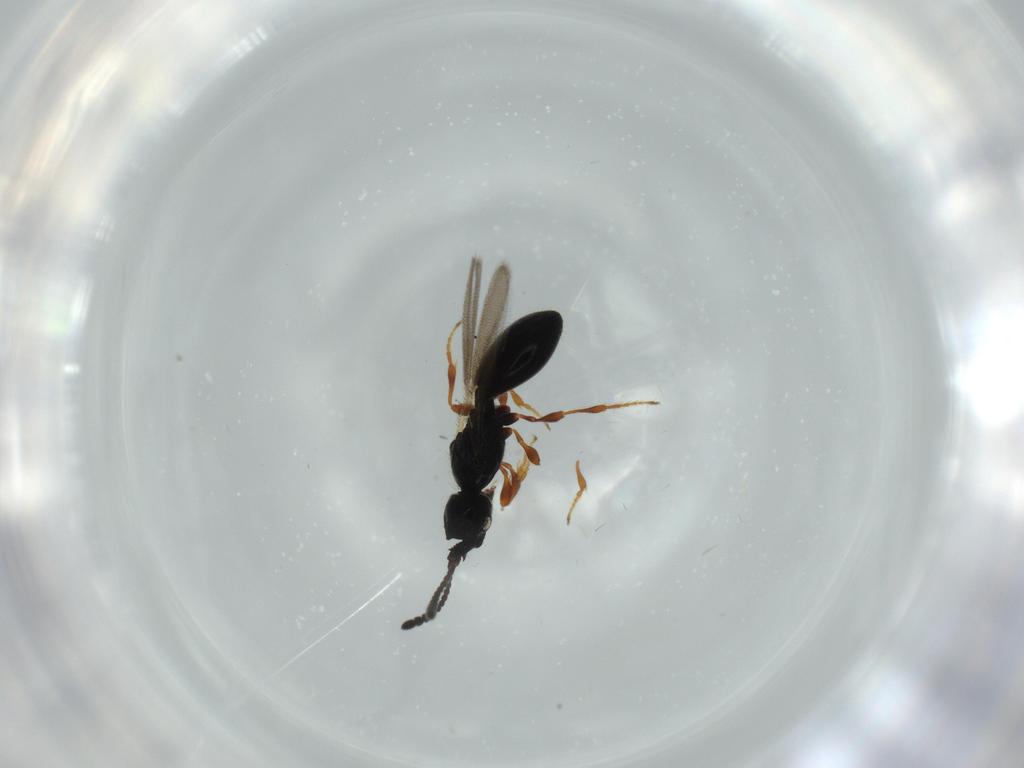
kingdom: Animalia
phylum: Arthropoda
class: Insecta
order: Hymenoptera
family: Diapriidae
